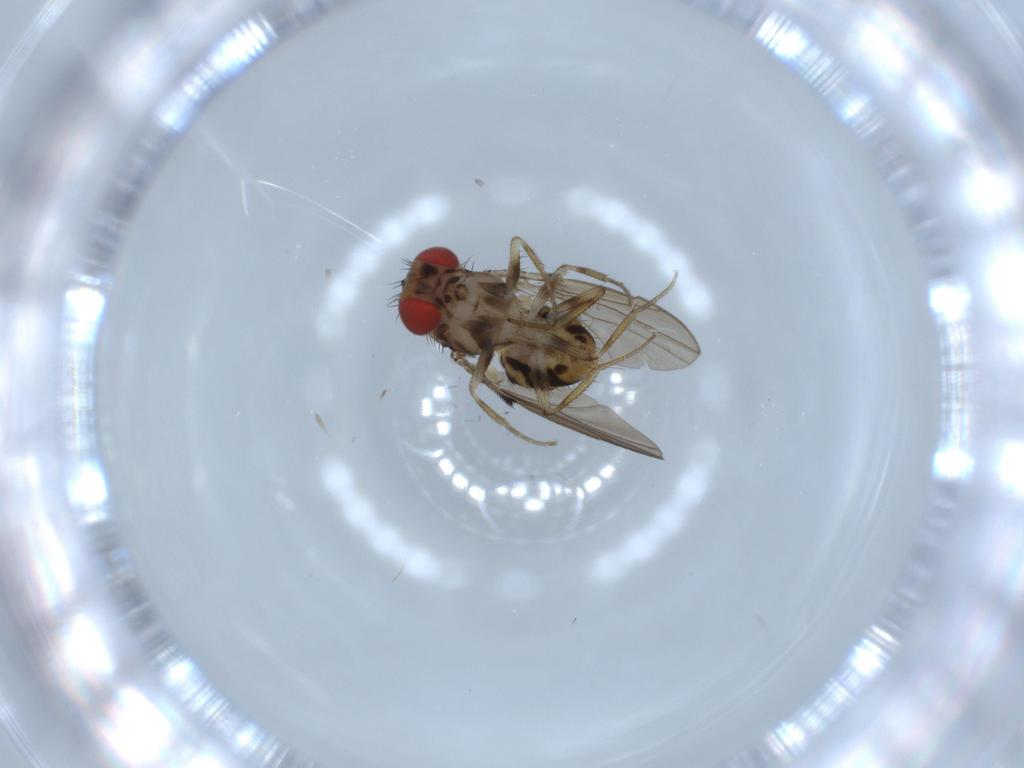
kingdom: Animalia
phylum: Arthropoda
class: Insecta
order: Diptera
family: Drosophilidae
